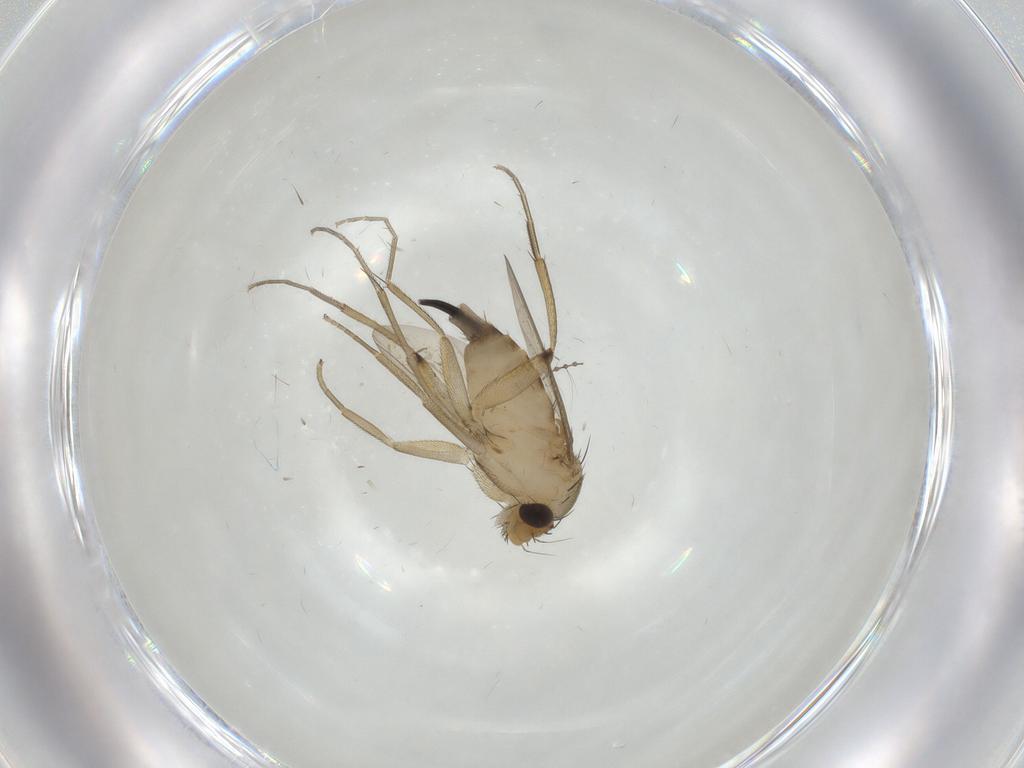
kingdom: Animalia
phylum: Arthropoda
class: Insecta
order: Diptera
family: Phoridae
